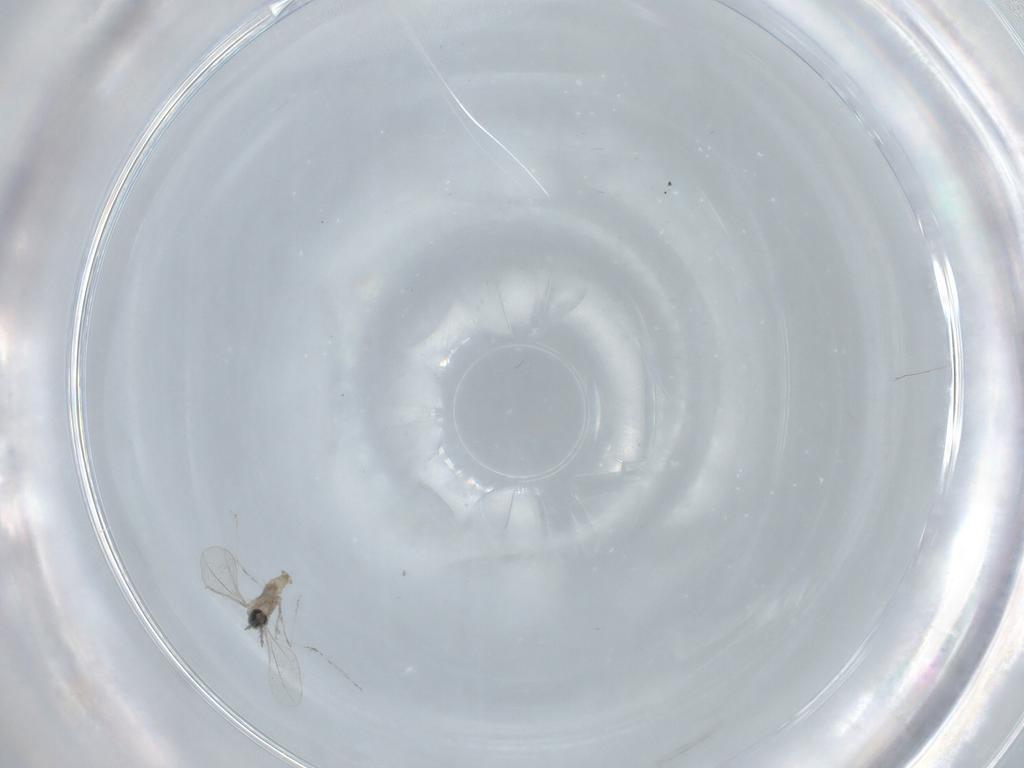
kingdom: Animalia
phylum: Arthropoda
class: Insecta
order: Diptera
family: Cecidomyiidae
